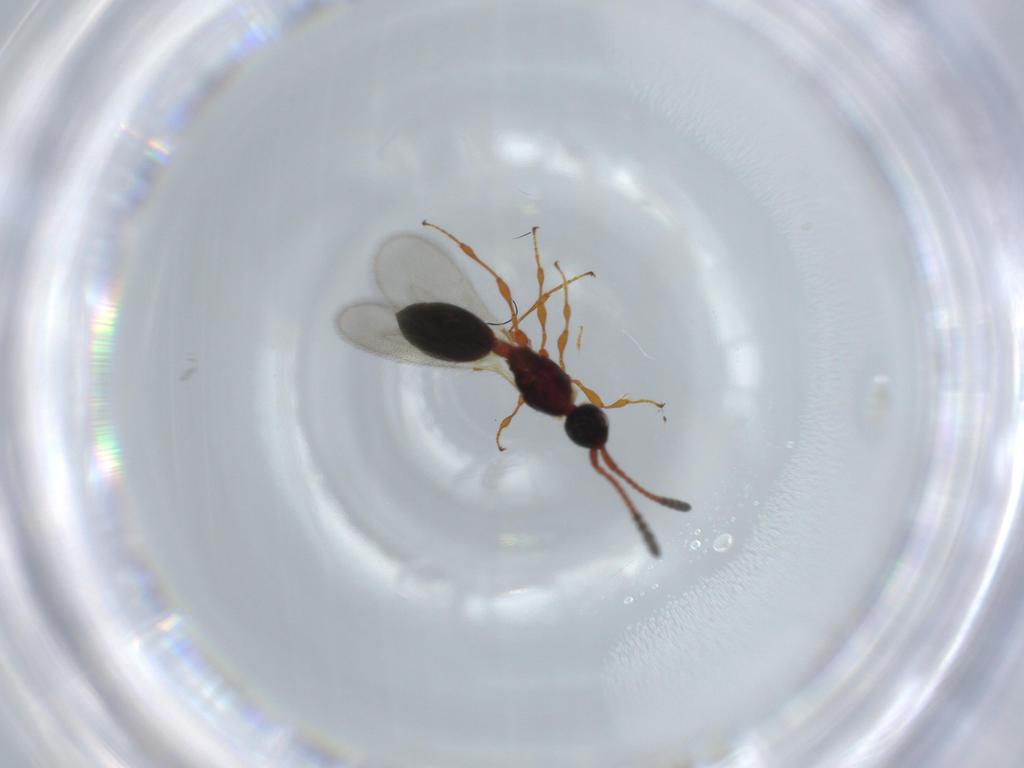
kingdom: Animalia
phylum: Arthropoda
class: Insecta
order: Hymenoptera
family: Diapriidae
